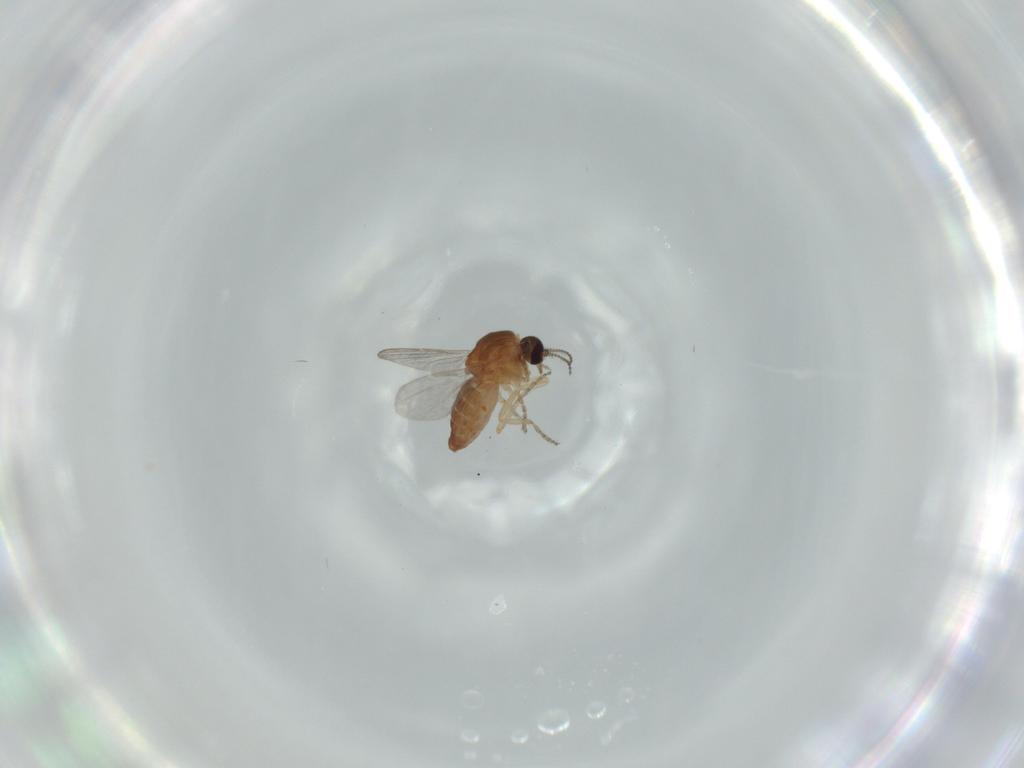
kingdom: Animalia
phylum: Arthropoda
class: Insecta
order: Diptera
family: Ceratopogonidae
